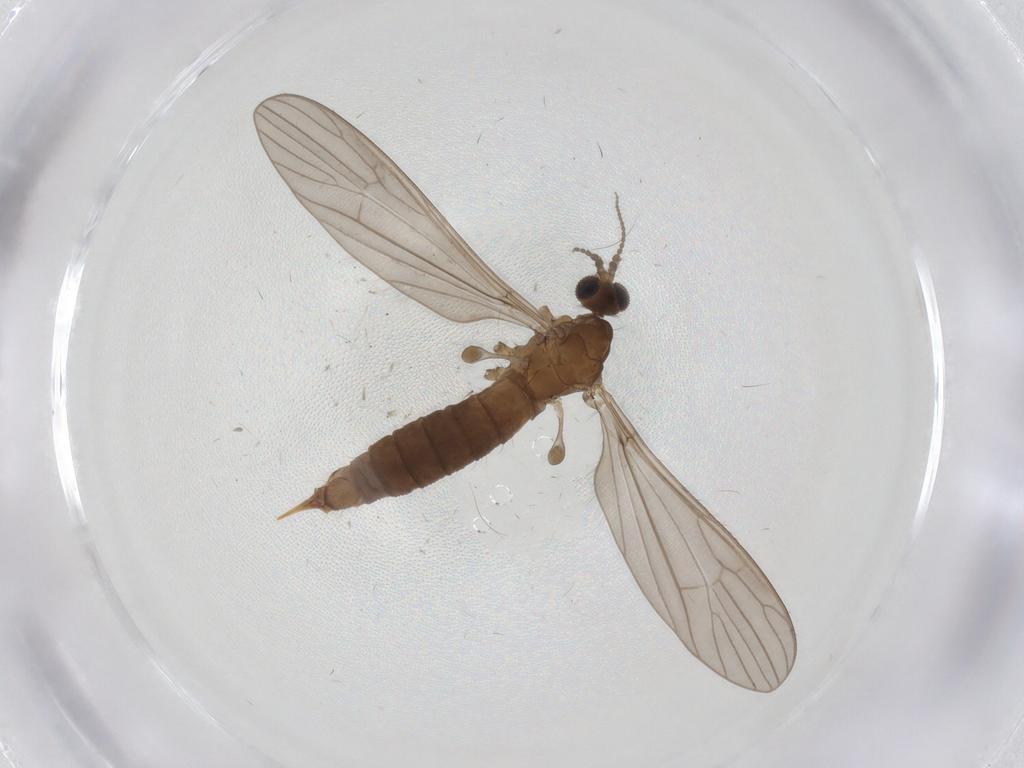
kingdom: Animalia
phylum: Arthropoda
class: Insecta
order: Diptera
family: Limoniidae
